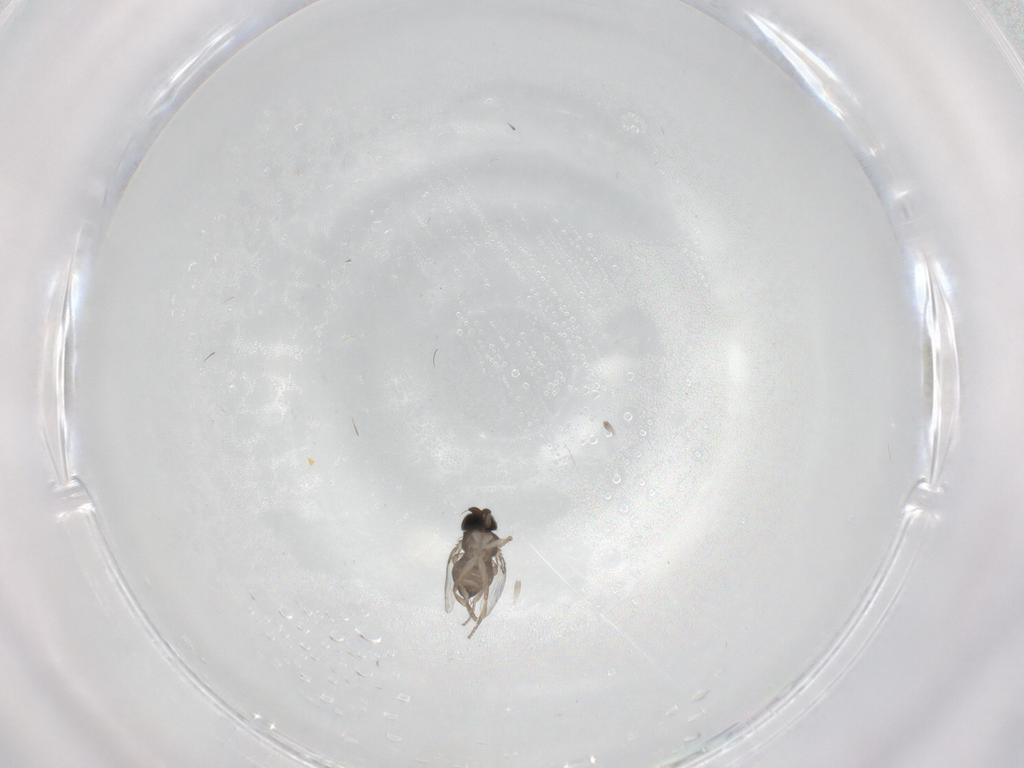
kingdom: Animalia
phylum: Arthropoda
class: Insecta
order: Diptera
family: Phoridae
